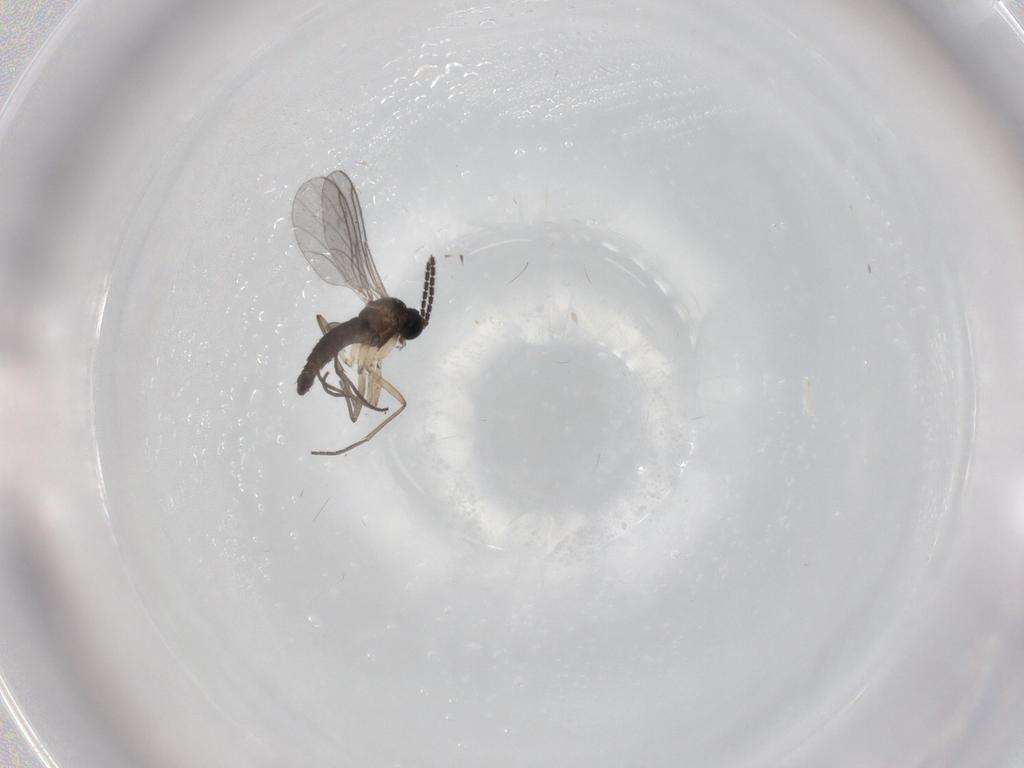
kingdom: Animalia
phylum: Arthropoda
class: Insecta
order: Diptera
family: Sciaridae
